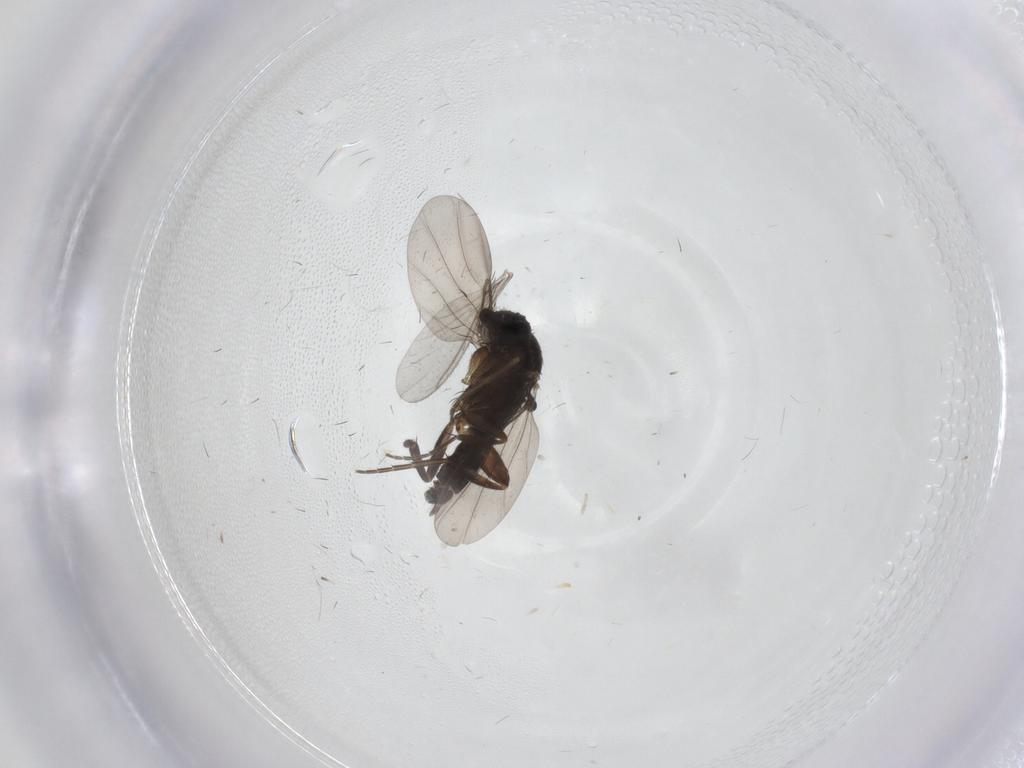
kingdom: Animalia
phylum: Arthropoda
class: Insecta
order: Diptera
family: Phoridae
